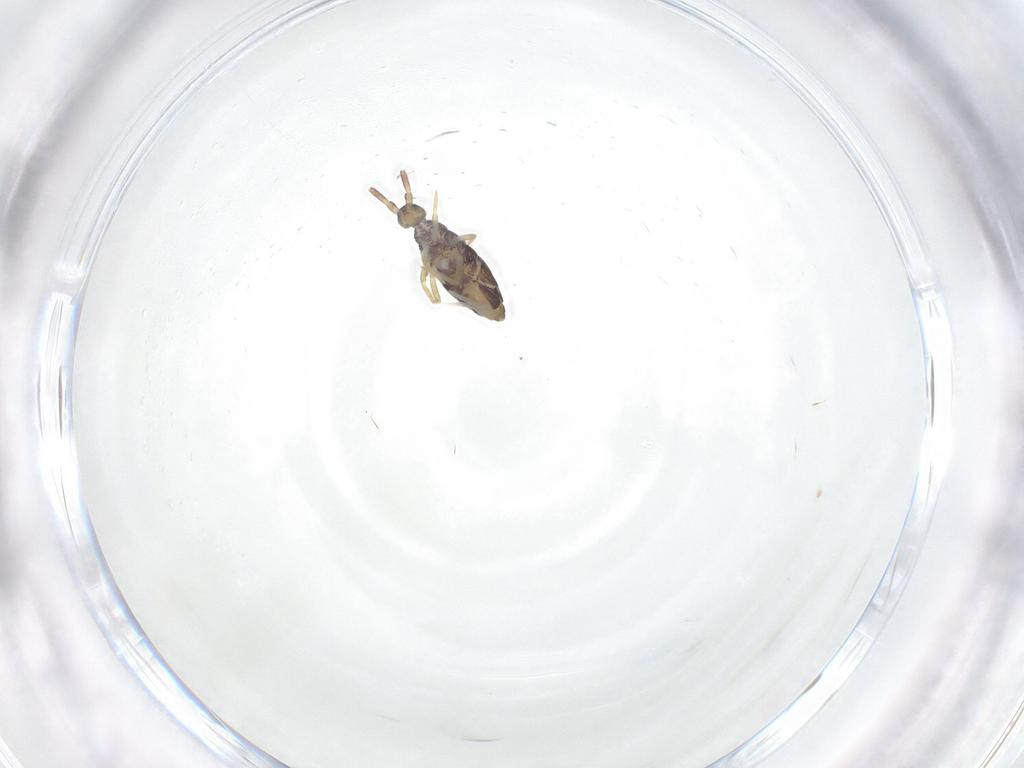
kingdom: Animalia
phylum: Arthropoda
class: Collembola
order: Entomobryomorpha
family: Entomobryidae
